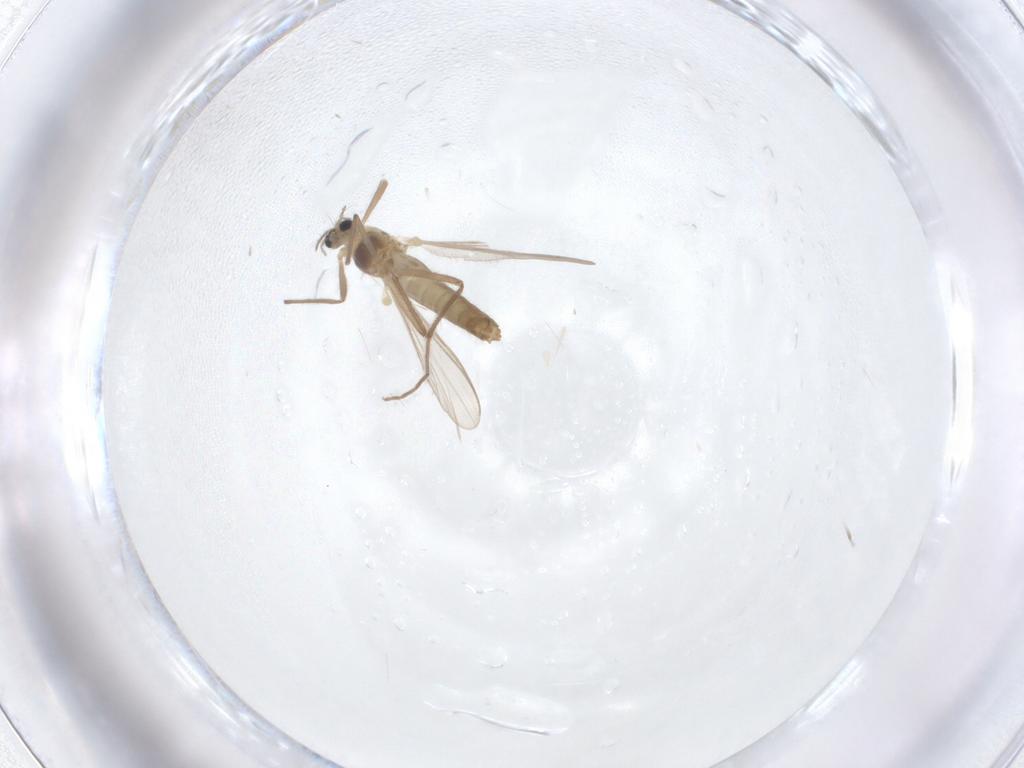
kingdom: Animalia
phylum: Arthropoda
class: Insecta
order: Diptera
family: Chironomidae
